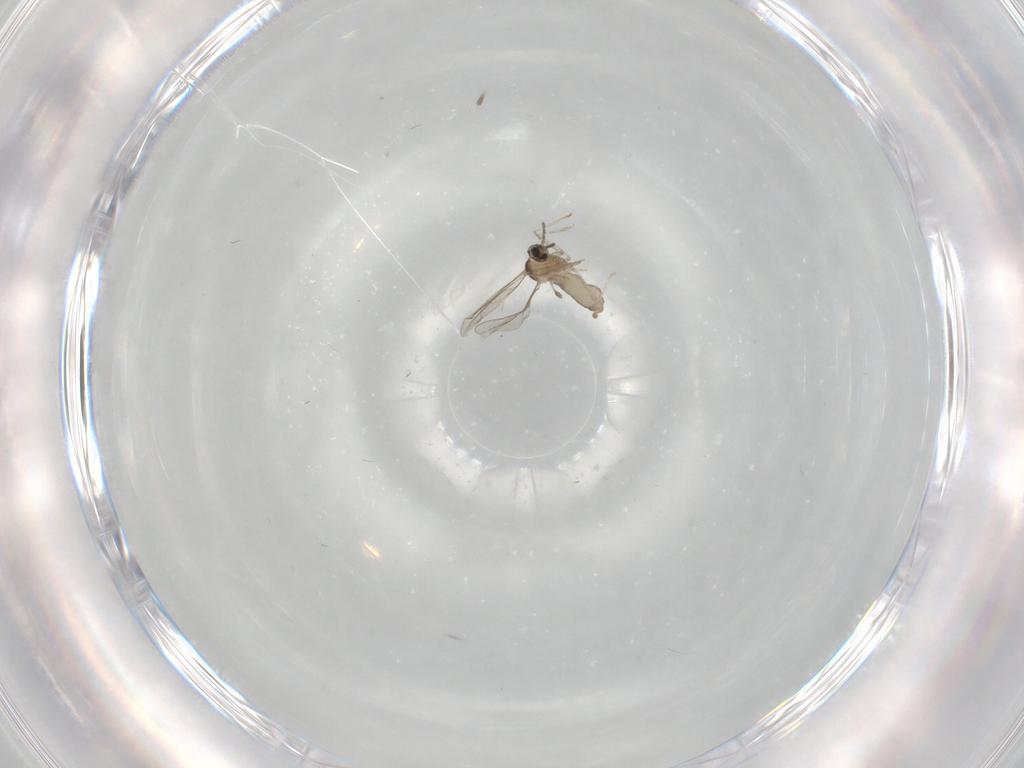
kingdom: Animalia
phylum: Arthropoda
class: Insecta
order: Diptera
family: Cecidomyiidae
